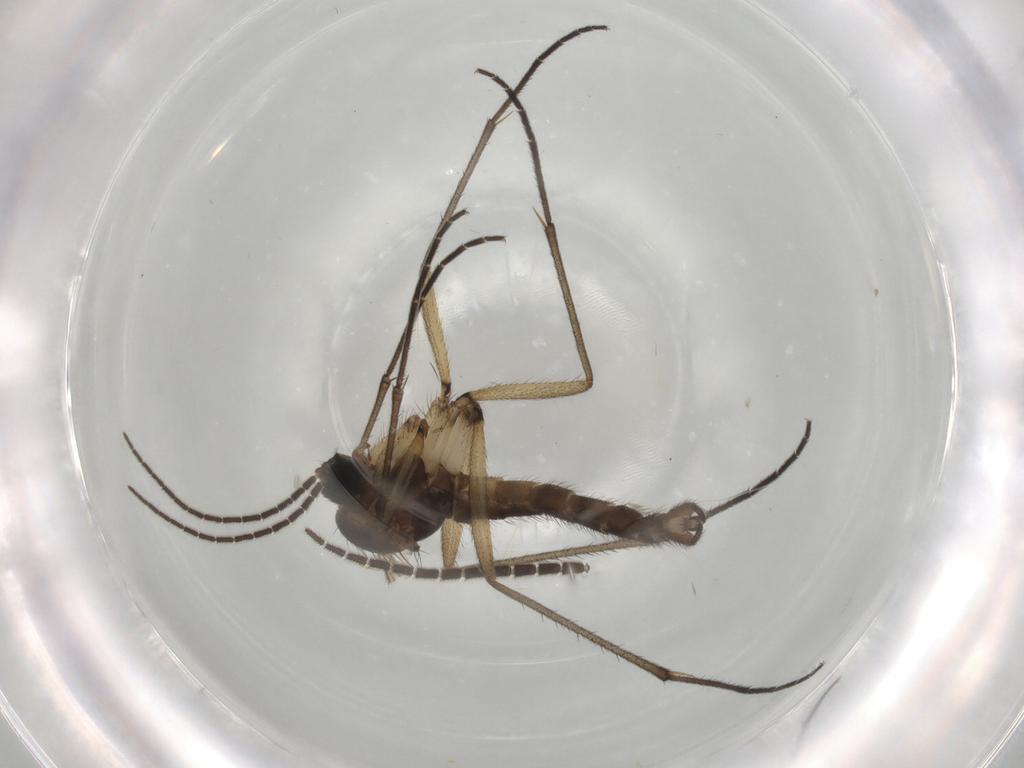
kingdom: Animalia
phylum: Arthropoda
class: Insecta
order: Diptera
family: Sciaridae
